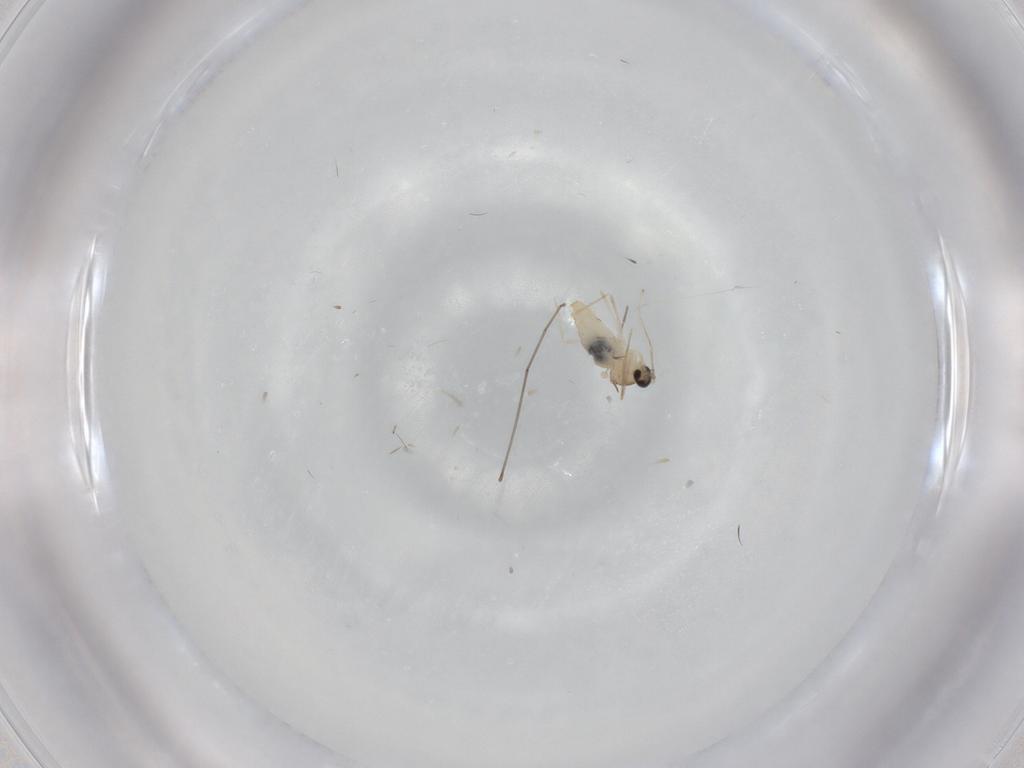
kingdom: Animalia
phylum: Arthropoda
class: Insecta
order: Diptera
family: Cecidomyiidae
